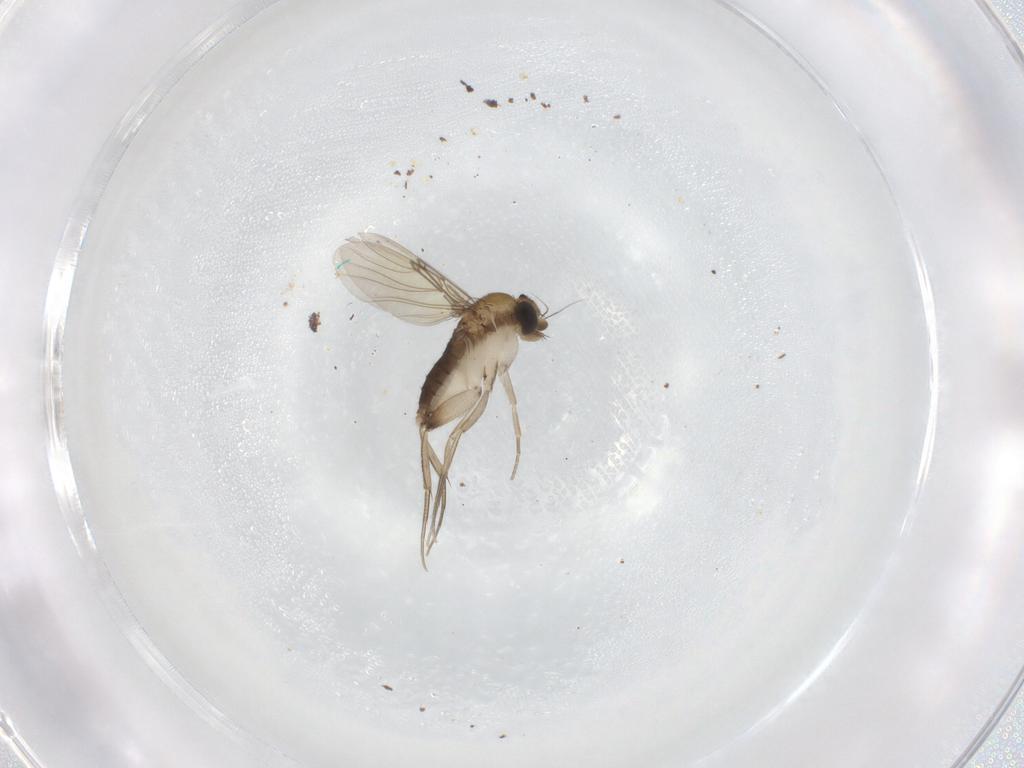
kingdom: Animalia
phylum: Arthropoda
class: Insecta
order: Diptera
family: Phoridae
